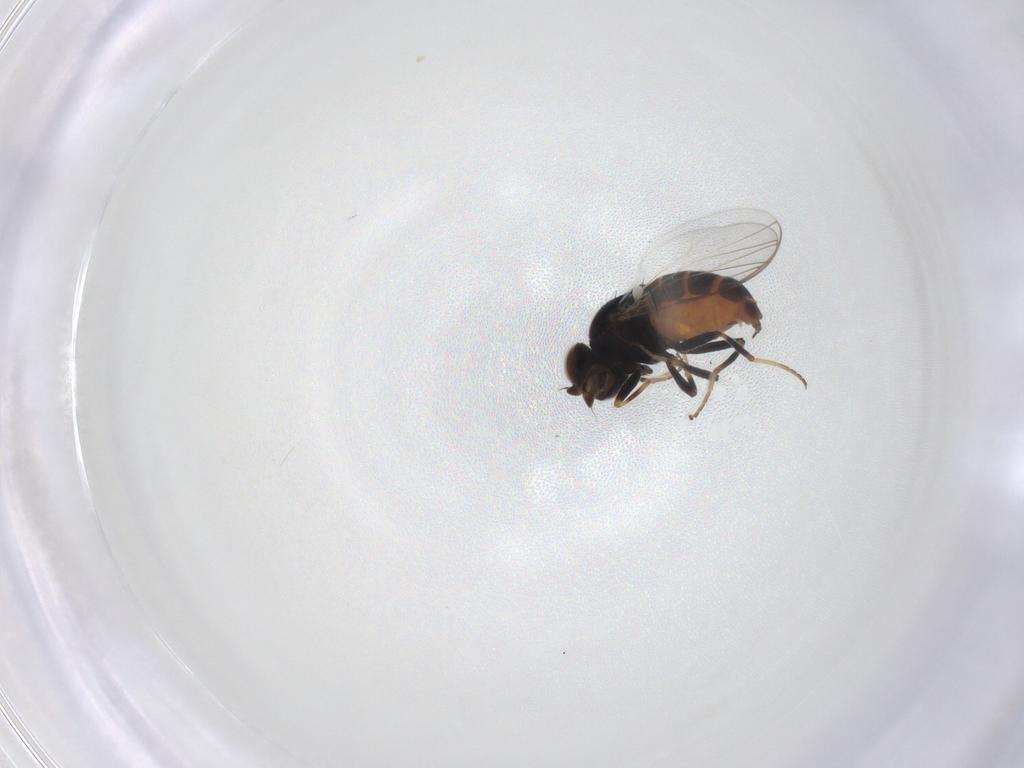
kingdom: Animalia
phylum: Arthropoda
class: Insecta
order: Diptera
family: Chloropidae
